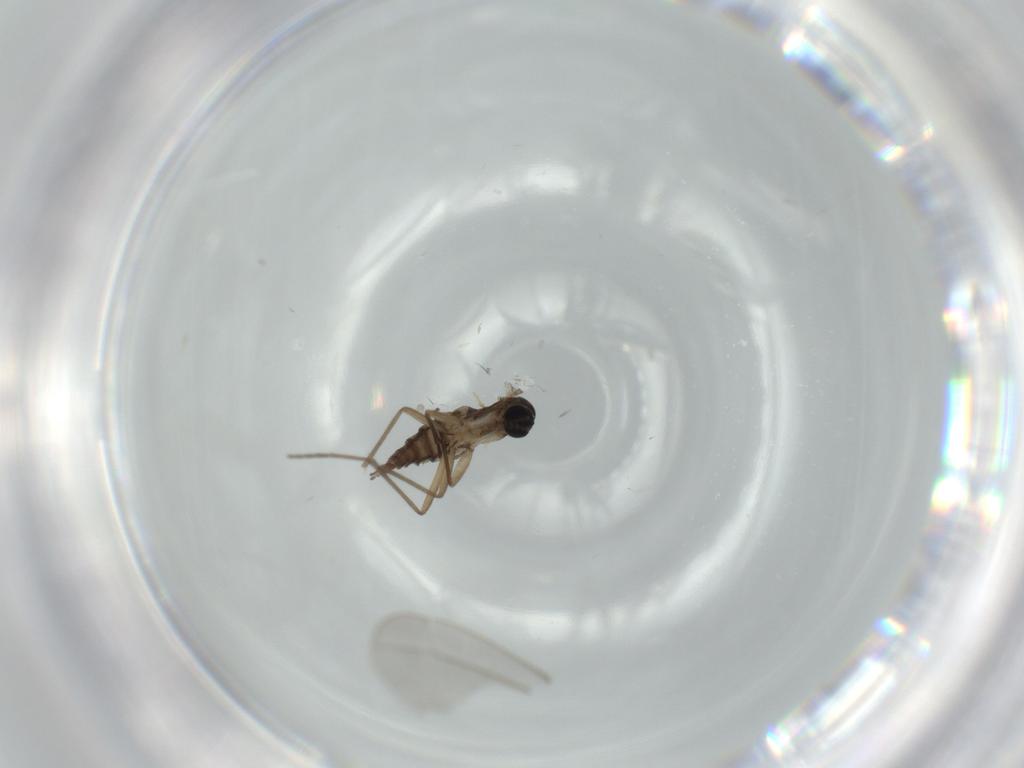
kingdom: Animalia
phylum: Arthropoda
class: Insecta
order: Diptera
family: Sciaridae
